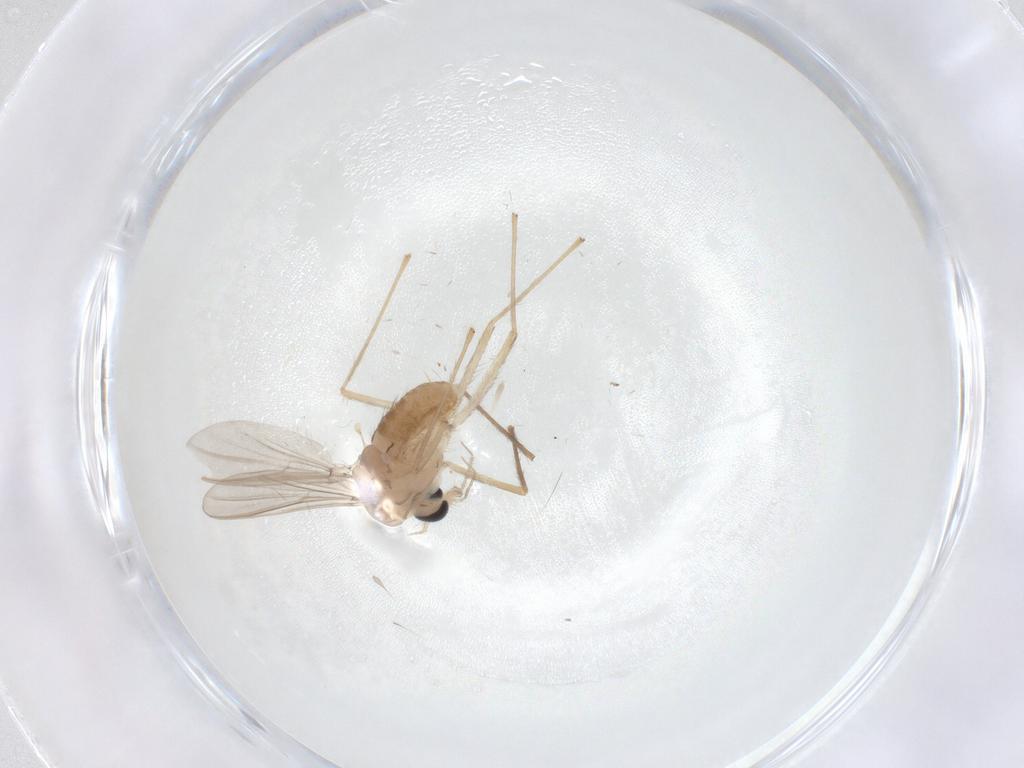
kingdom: Animalia
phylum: Arthropoda
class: Insecta
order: Diptera
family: Chironomidae
